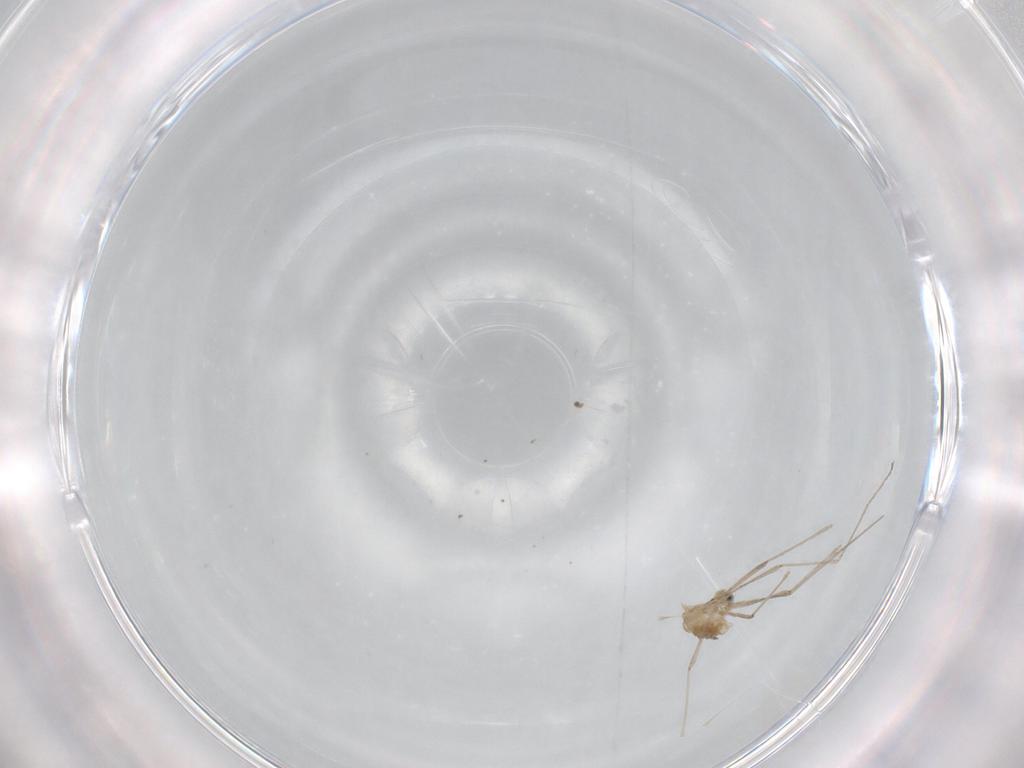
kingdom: Animalia
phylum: Arthropoda
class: Insecta
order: Diptera
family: Cecidomyiidae
